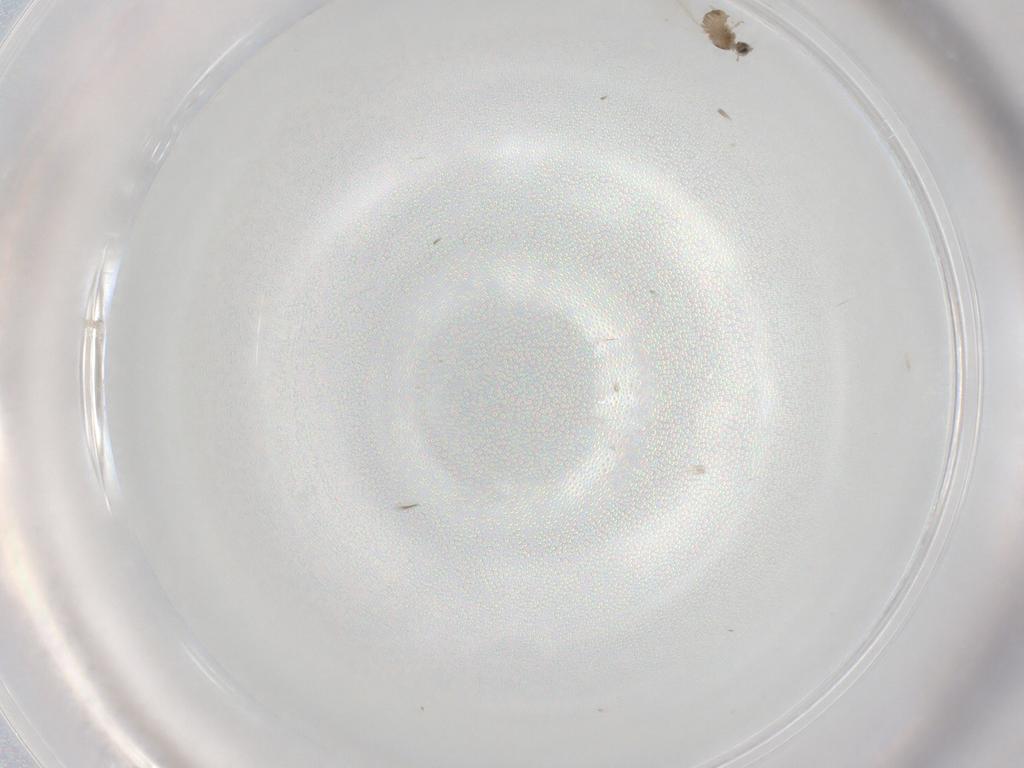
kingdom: Animalia
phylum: Arthropoda
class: Insecta
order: Diptera
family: Cecidomyiidae
